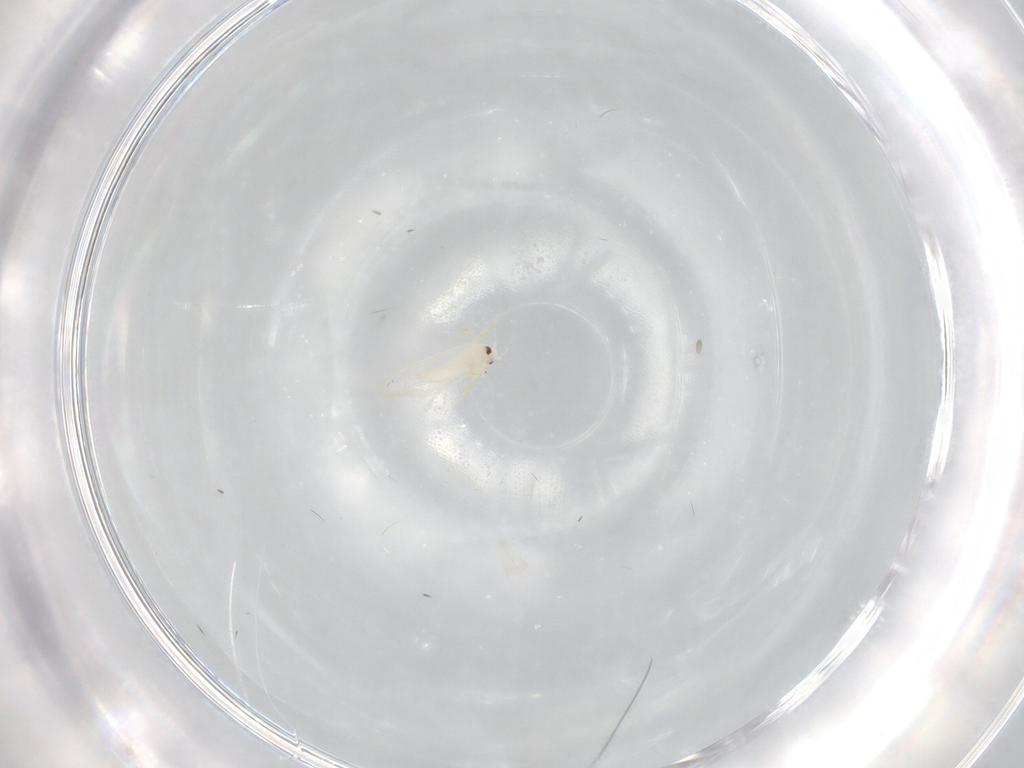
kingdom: Animalia
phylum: Arthropoda
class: Insecta
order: Hemiptera
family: Aleyrodidae
